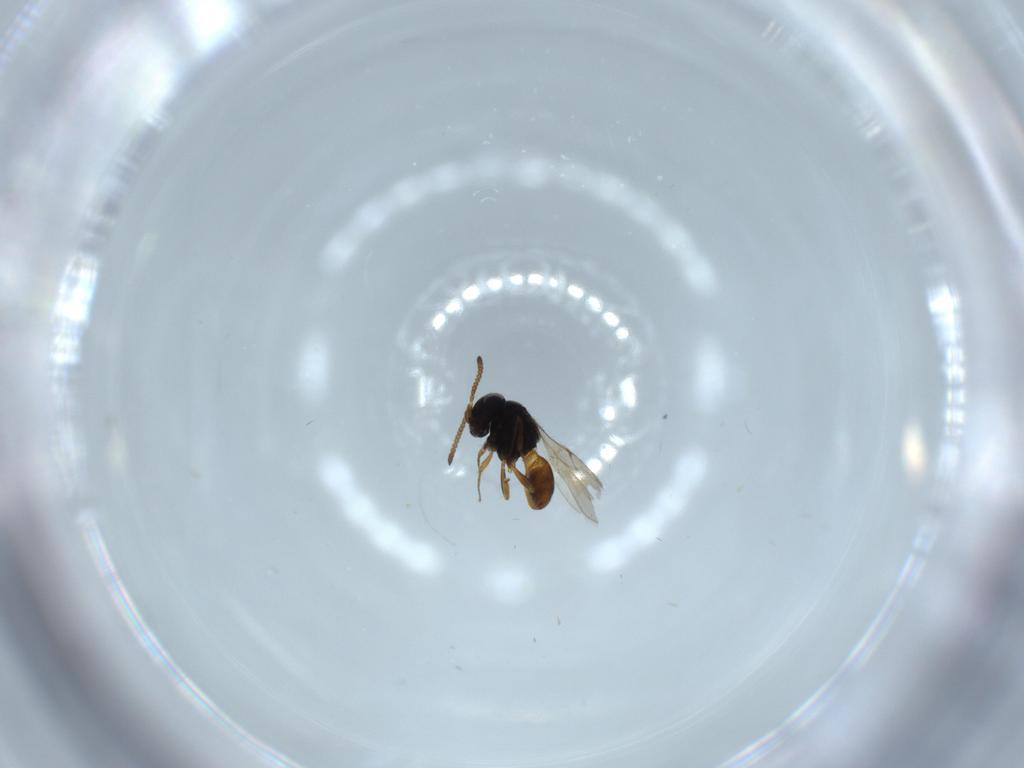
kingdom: Animalia
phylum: Arthropoda
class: Insecta
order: Hymenoptera
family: Scelionidae
